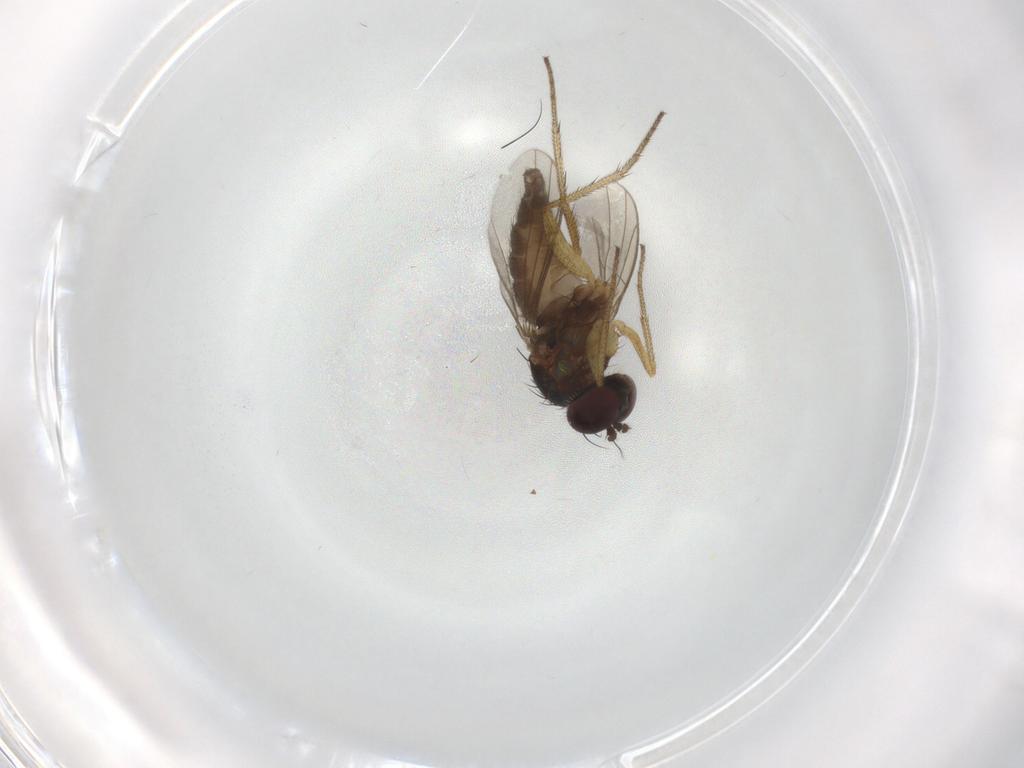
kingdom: Animalia
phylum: Arthropoda
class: Insecta
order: Diptera
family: Dolichopodidae
